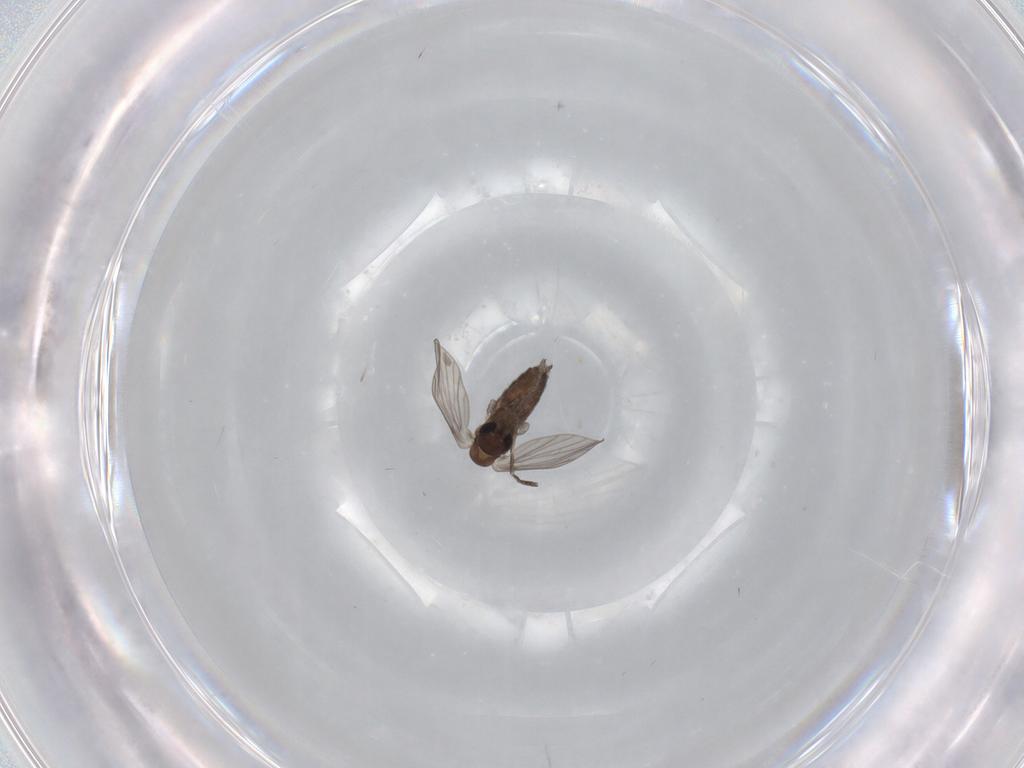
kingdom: Animalia
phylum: Arthropoda
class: Insecta
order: Diptera
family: Psychodidae
